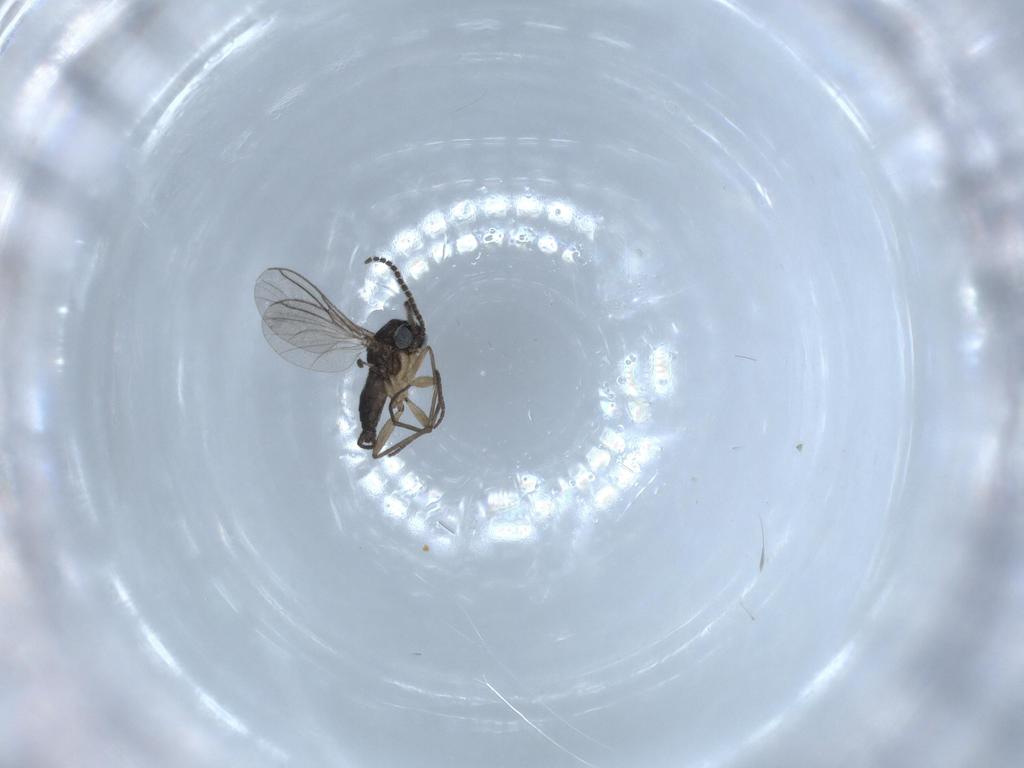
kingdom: Animalia
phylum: Arthropoda
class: Insecta
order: Diptera
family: Sciaridae
